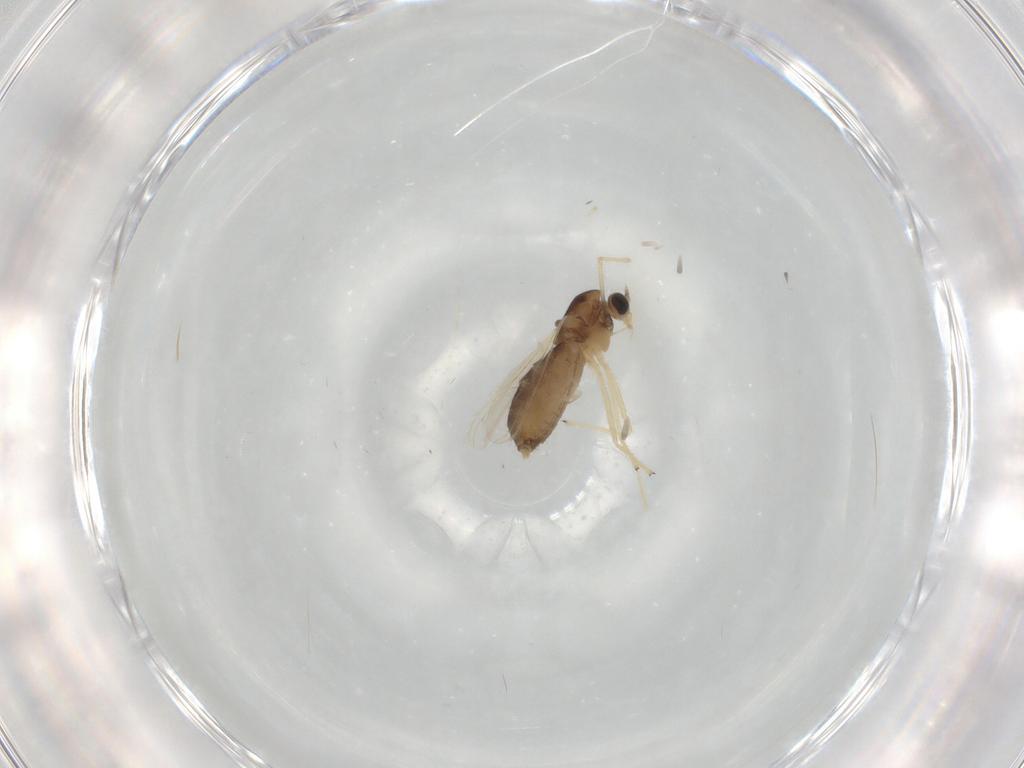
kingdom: Animalia
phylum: Arthropoda
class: Insecta
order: Diptera
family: Chironomidae
